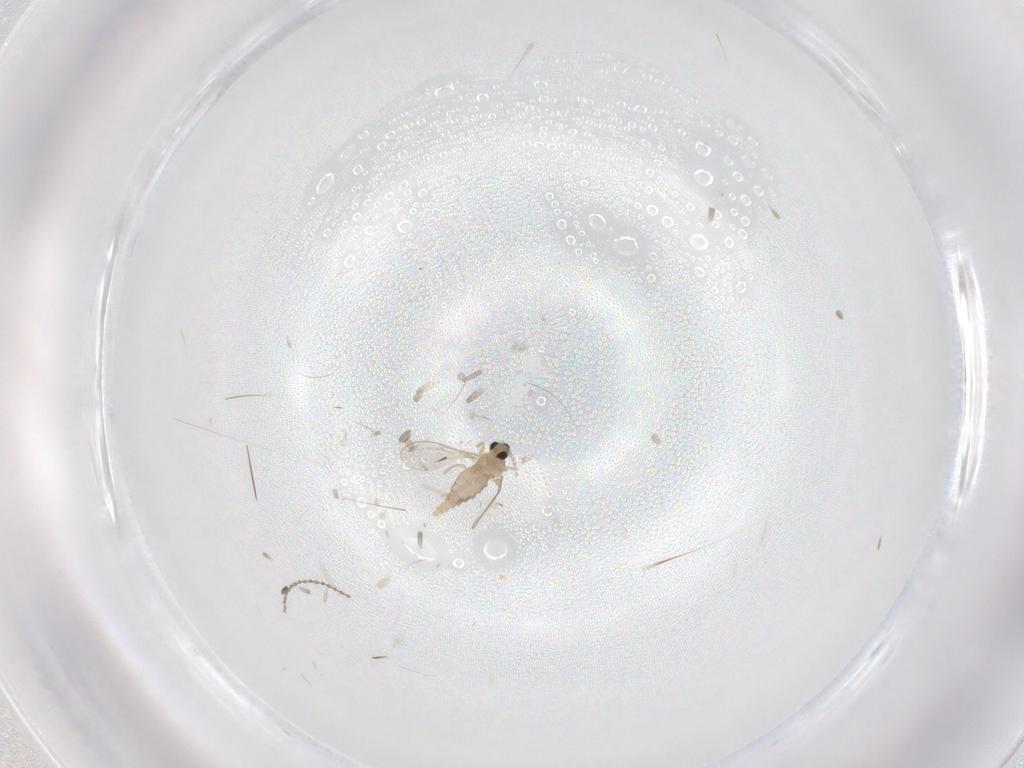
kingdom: Animalia
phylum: Arthropoda
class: Insecta
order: Diptera
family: Cecidomyiidae
